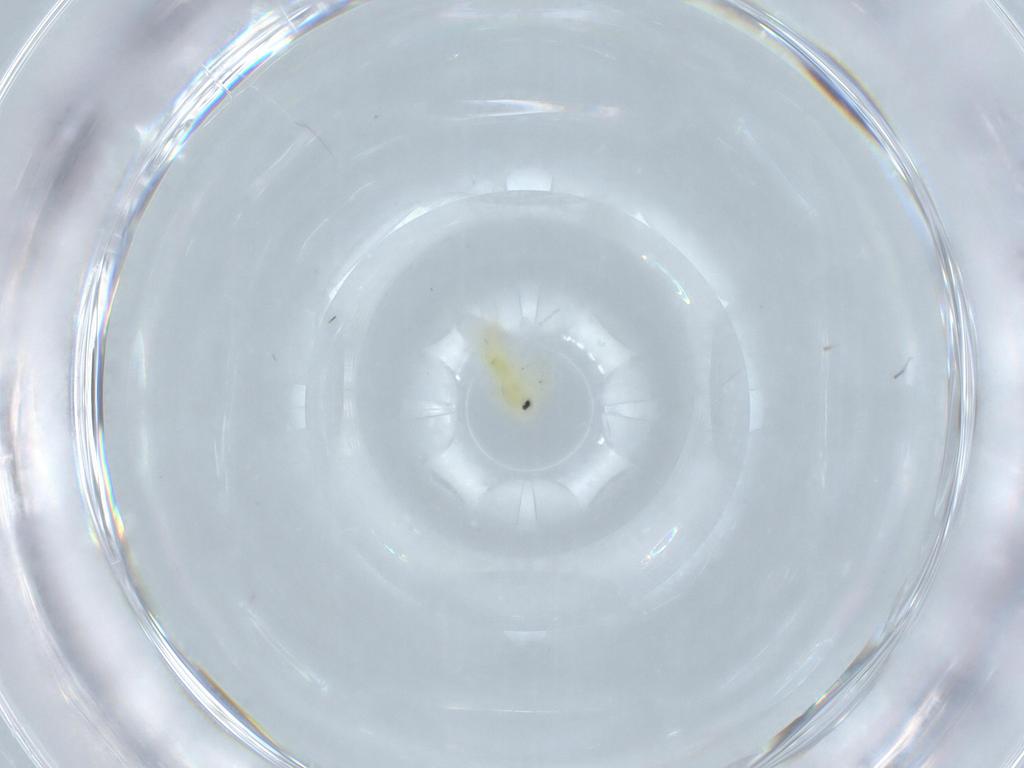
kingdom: Animalia
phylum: Arthropoda
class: Insecta
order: Hemiptera
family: Aleyrodidae
